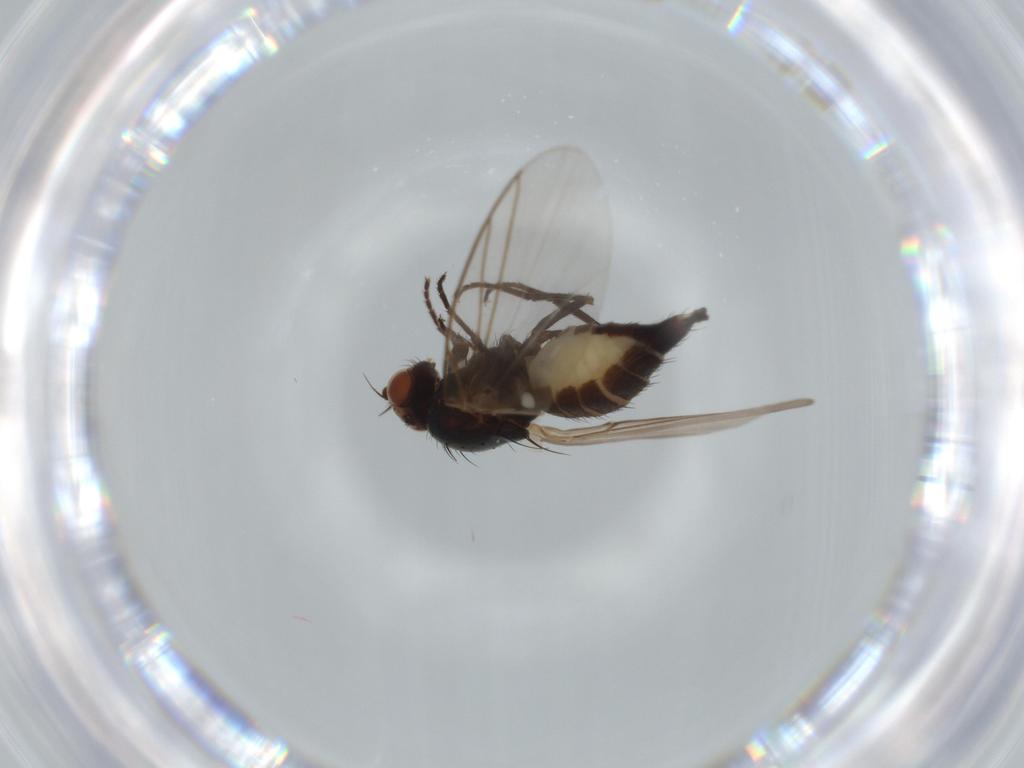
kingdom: Animalia
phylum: Arthropoda
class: Insecta
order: Diptera
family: Agromyzidae
